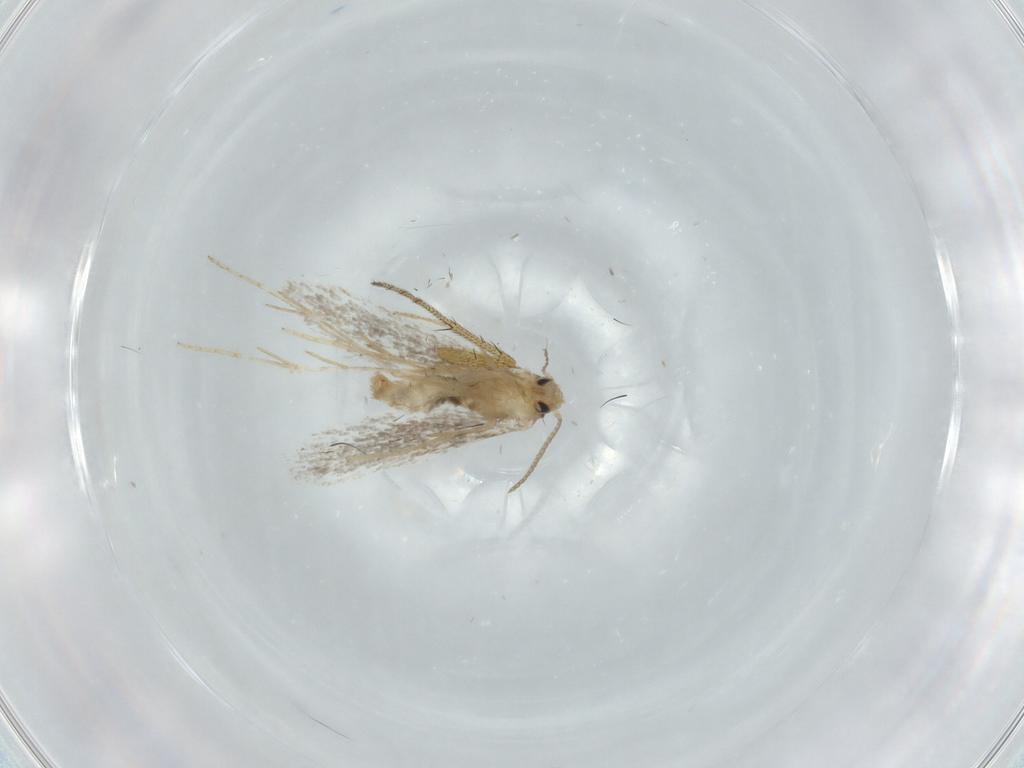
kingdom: Animalia
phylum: Arthropoda
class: Insecta
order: Lepidoptera
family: Schreckensteiniidae
